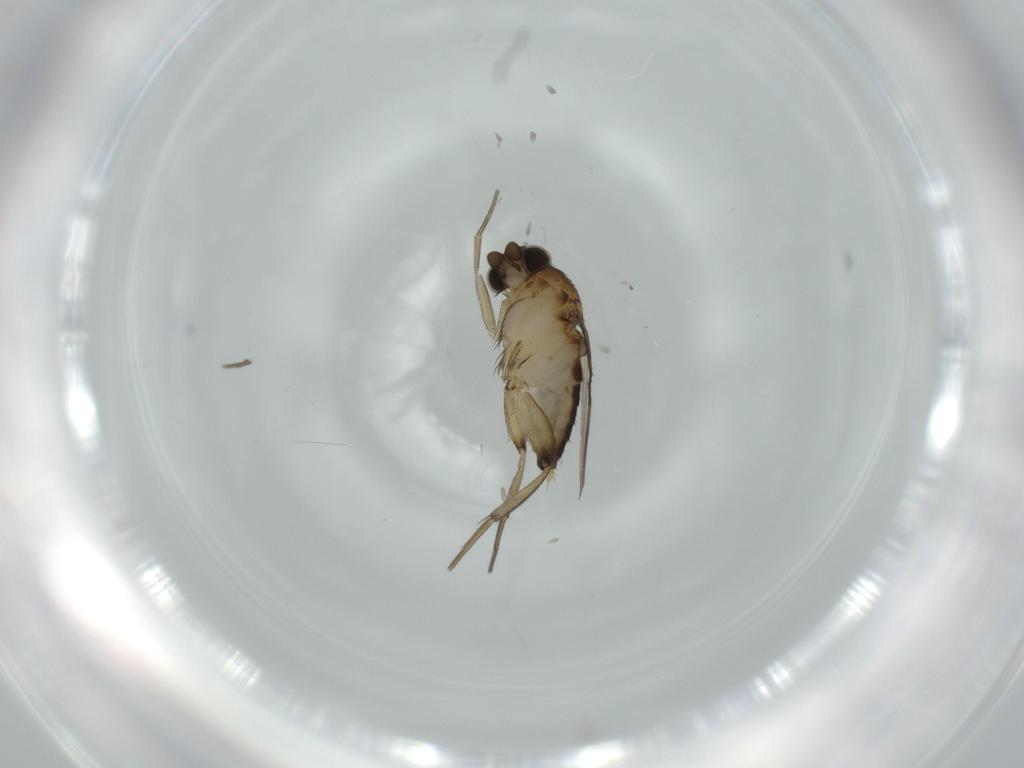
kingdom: Animalia
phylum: Arthropoda
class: Insecta
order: Diptera
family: Phoridae
